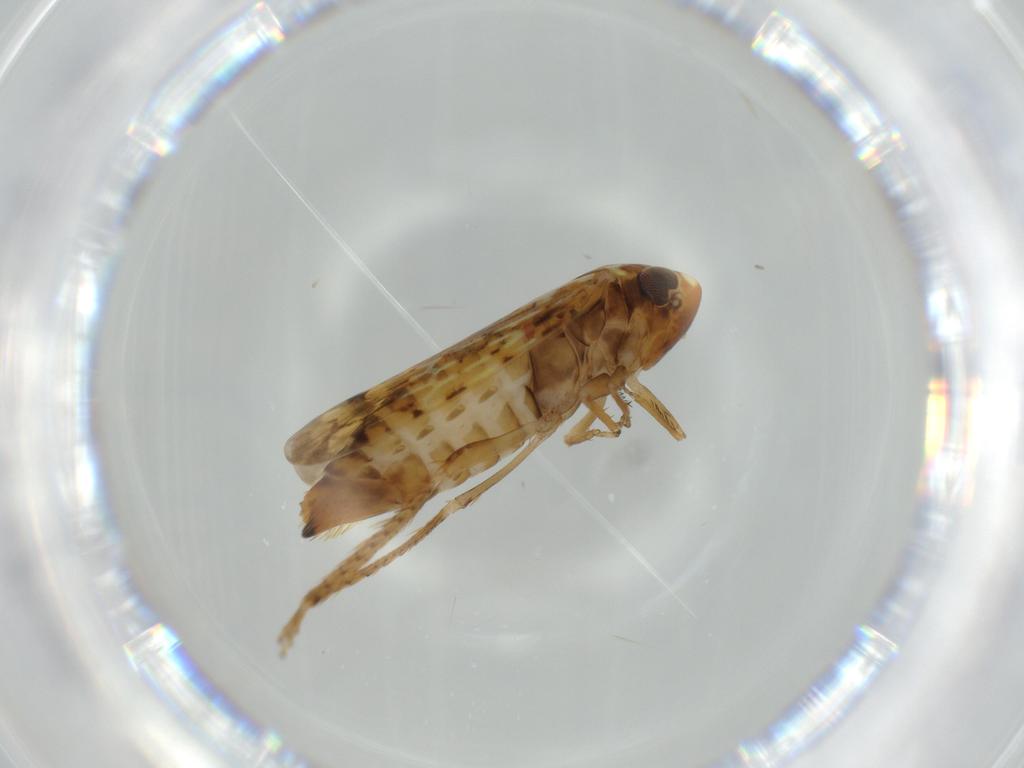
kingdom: Animalia
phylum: Arthropoda
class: Insecta
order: Hemiptera
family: Cicadellidae
